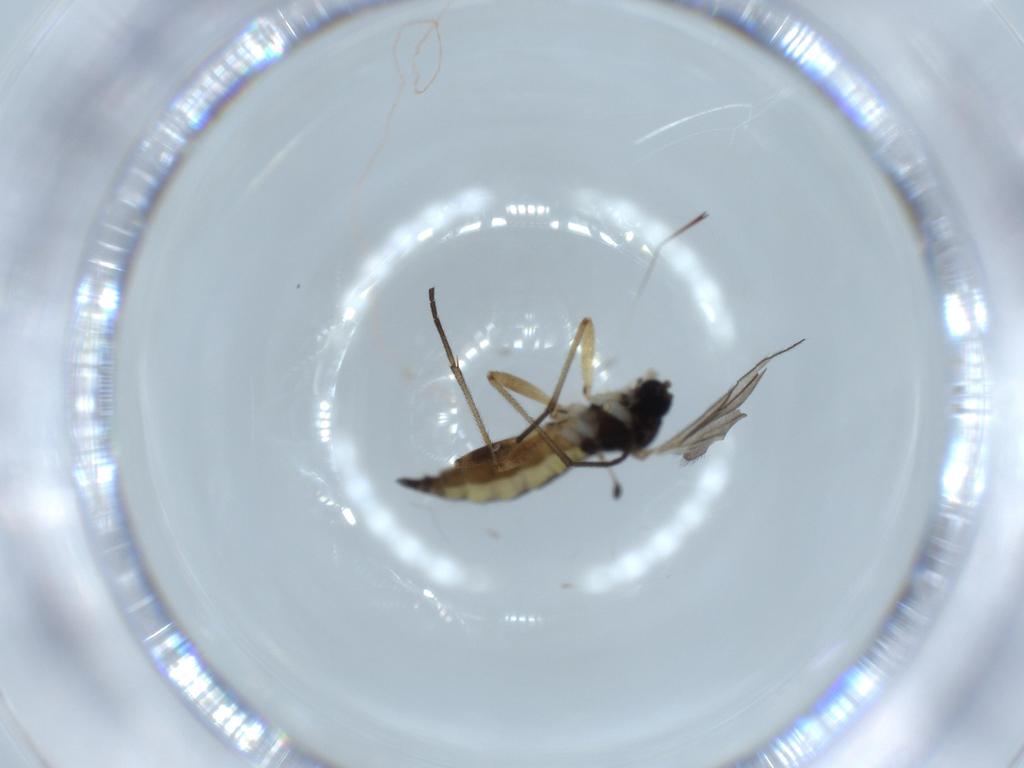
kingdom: Animalia
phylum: Arthropoda
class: Insecta
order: Diptera
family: Sciaridae
